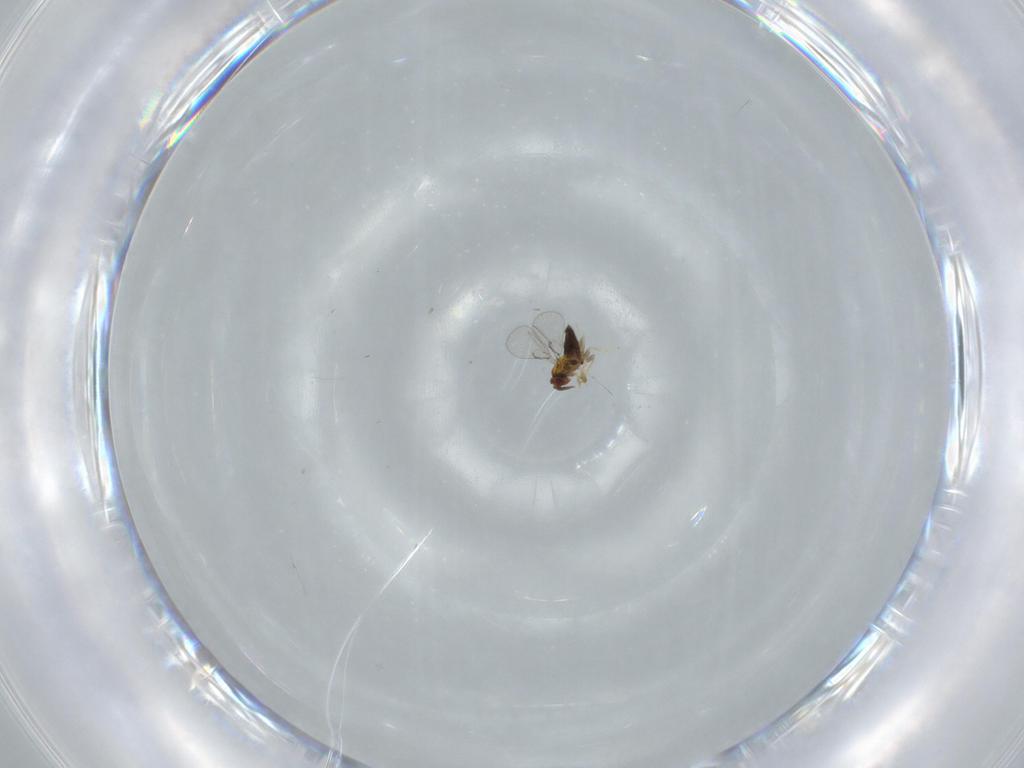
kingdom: Animalia
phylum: Arthropoda
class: Insecta
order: Hymenoptera
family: Trichogrammatidae
